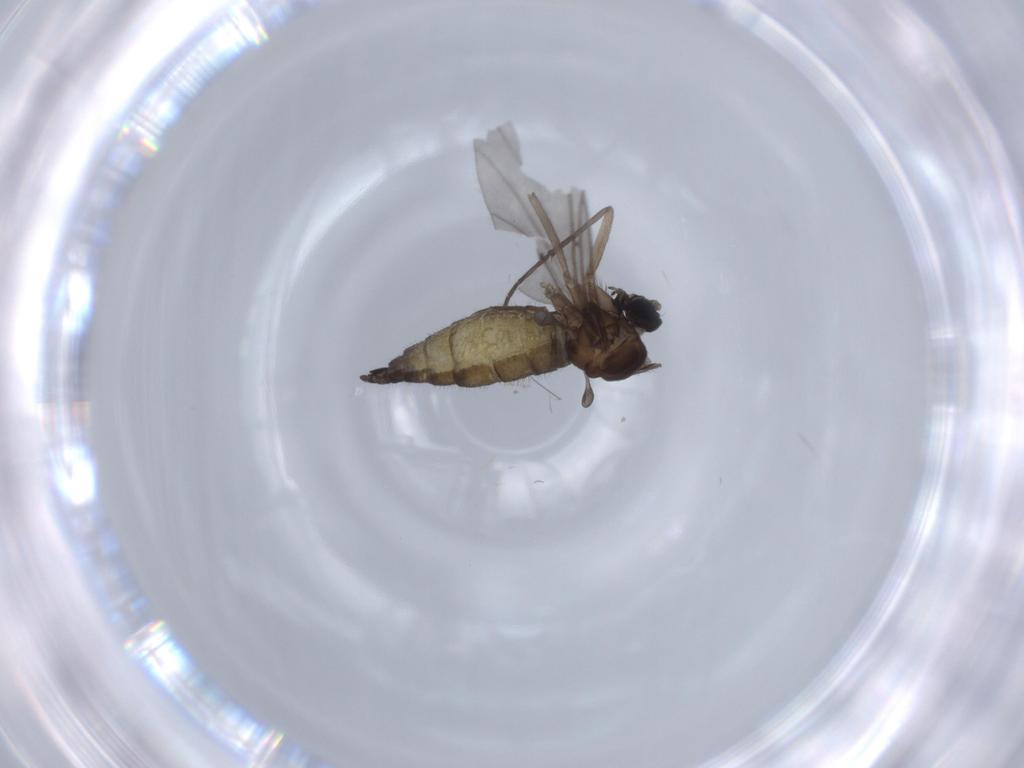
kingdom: Animalia
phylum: Arthropoda
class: Insecta
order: Diptera
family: Sciaridae
